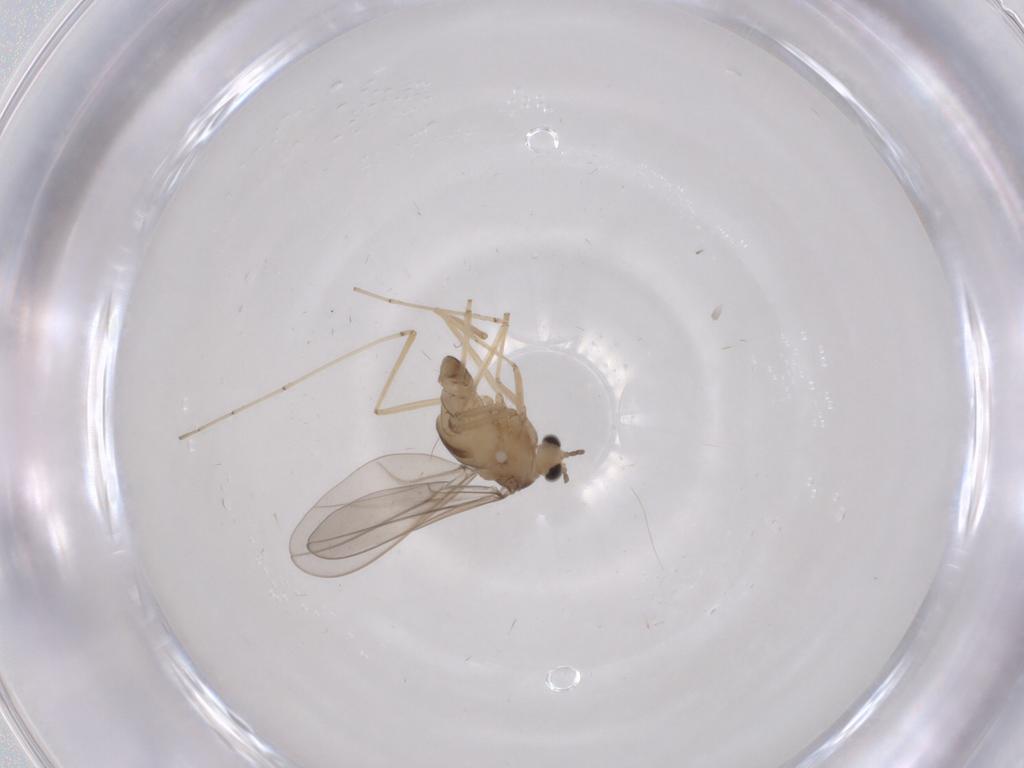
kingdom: Animalia
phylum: Arthropoda
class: Insecta
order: Diptera
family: Cecidomyiidae
